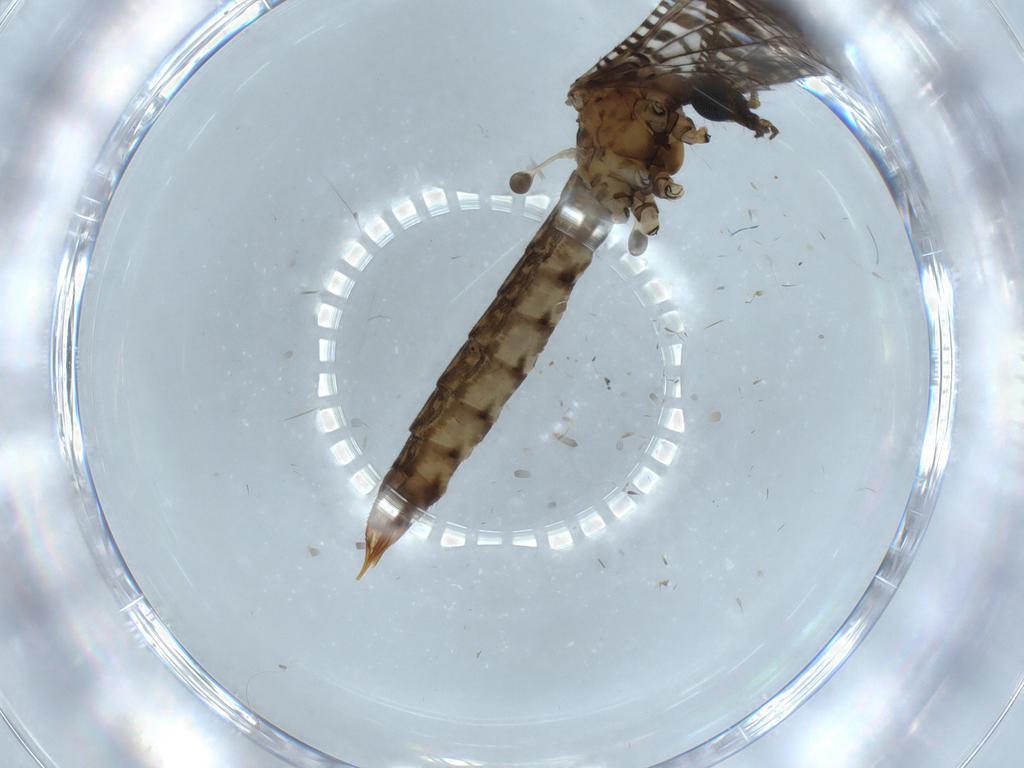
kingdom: Animalia
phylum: Arthropoda
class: Insecta
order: Diptera
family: Limoniidae
